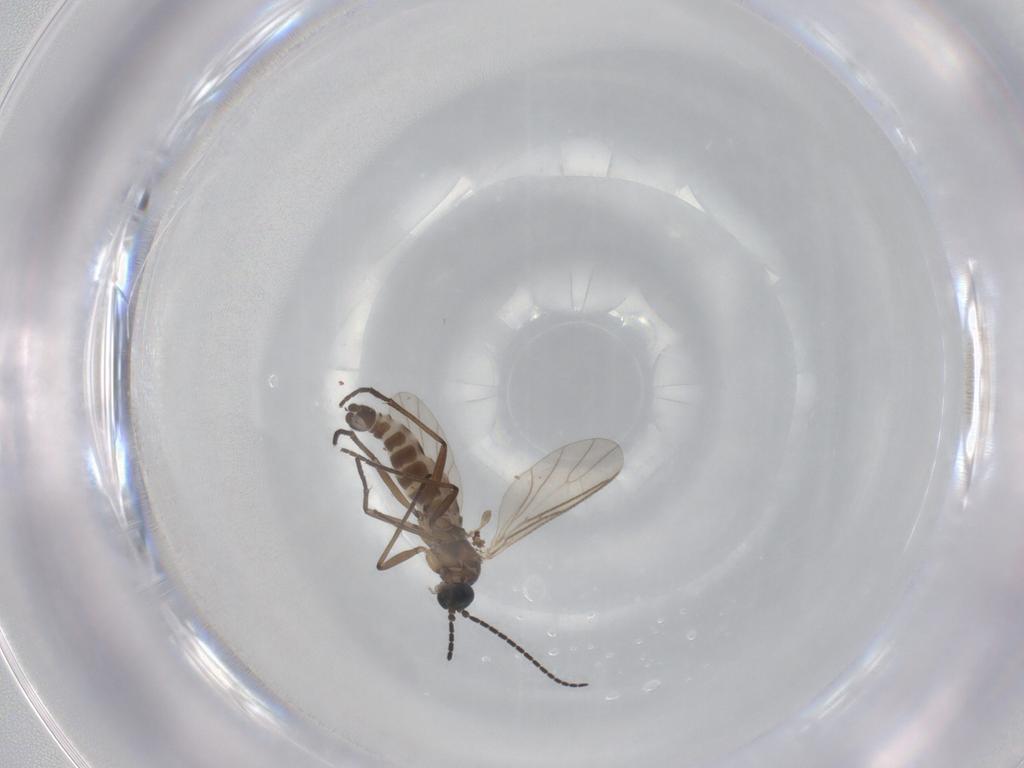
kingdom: Animalia
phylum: Arthropoda
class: Insecta
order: Diptera
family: Sciaridae
